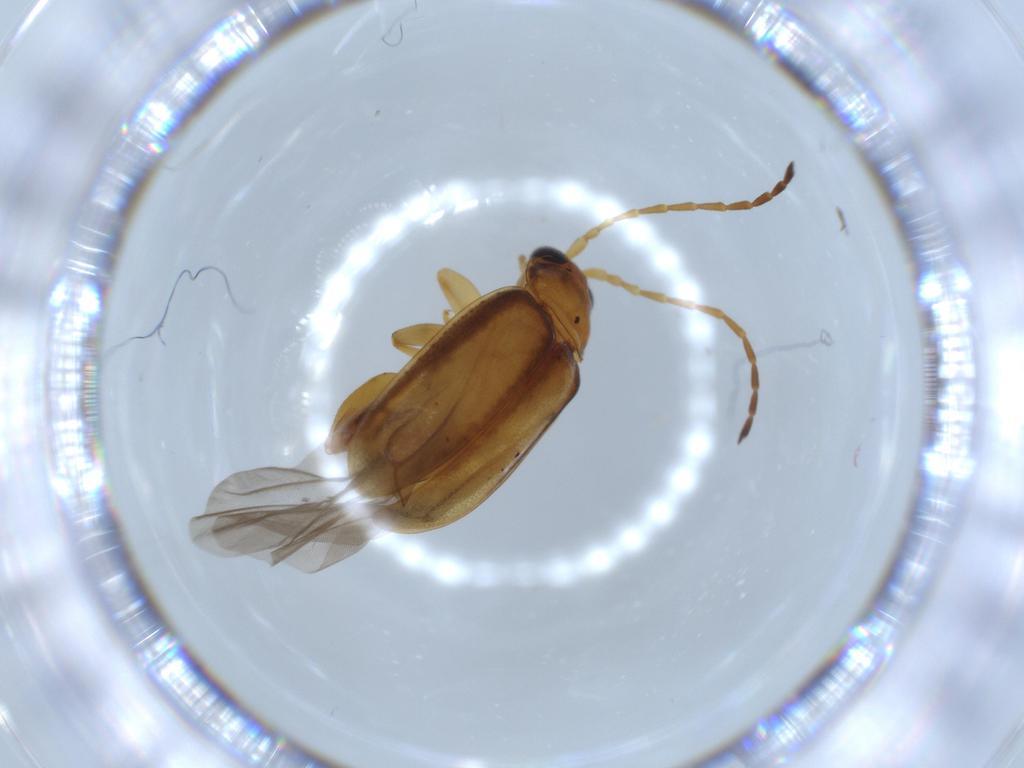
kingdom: Animalia
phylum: Arthropoda
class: Insecta
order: Coleoptera
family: Chrysomelidae
